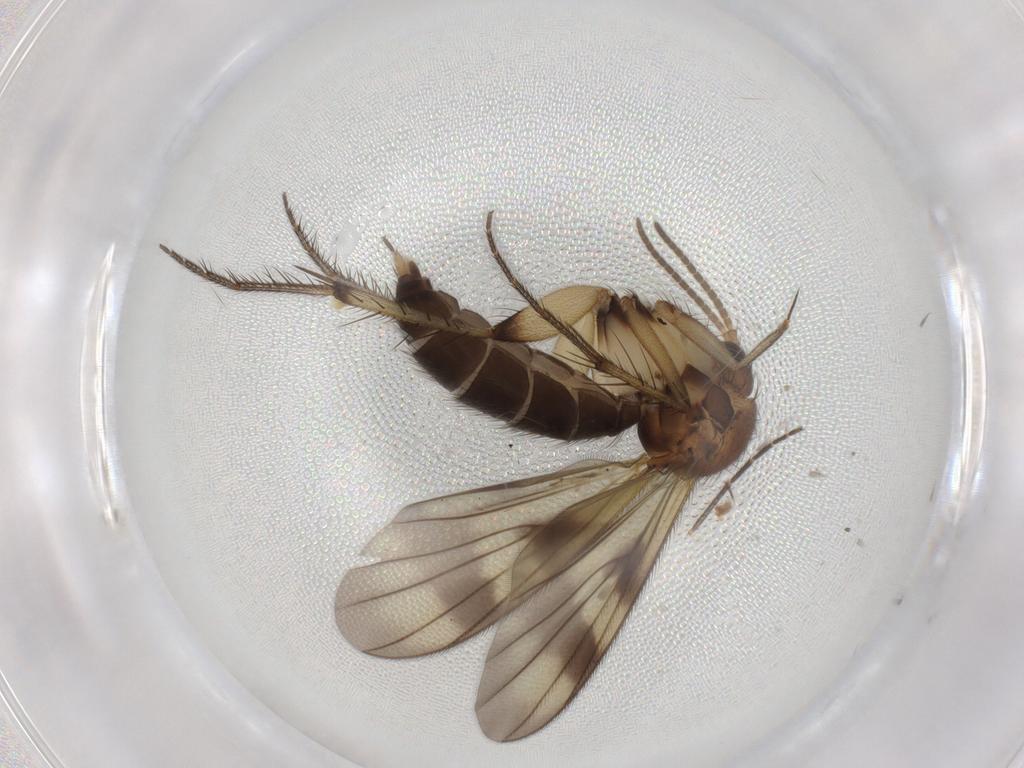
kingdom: Animalia
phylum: Arthropoda
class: Insecta
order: Diptera
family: Mycetophilidae
